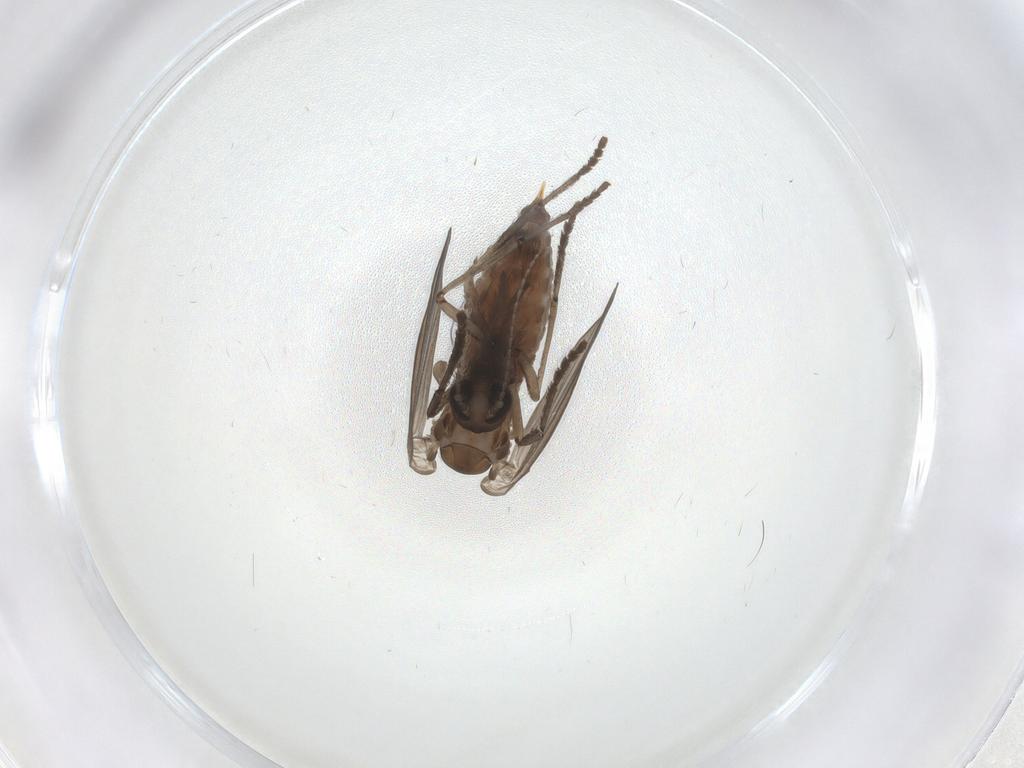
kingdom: Animalia
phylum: Arthropoda
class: Insecta
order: Diptera
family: Psychodidae
